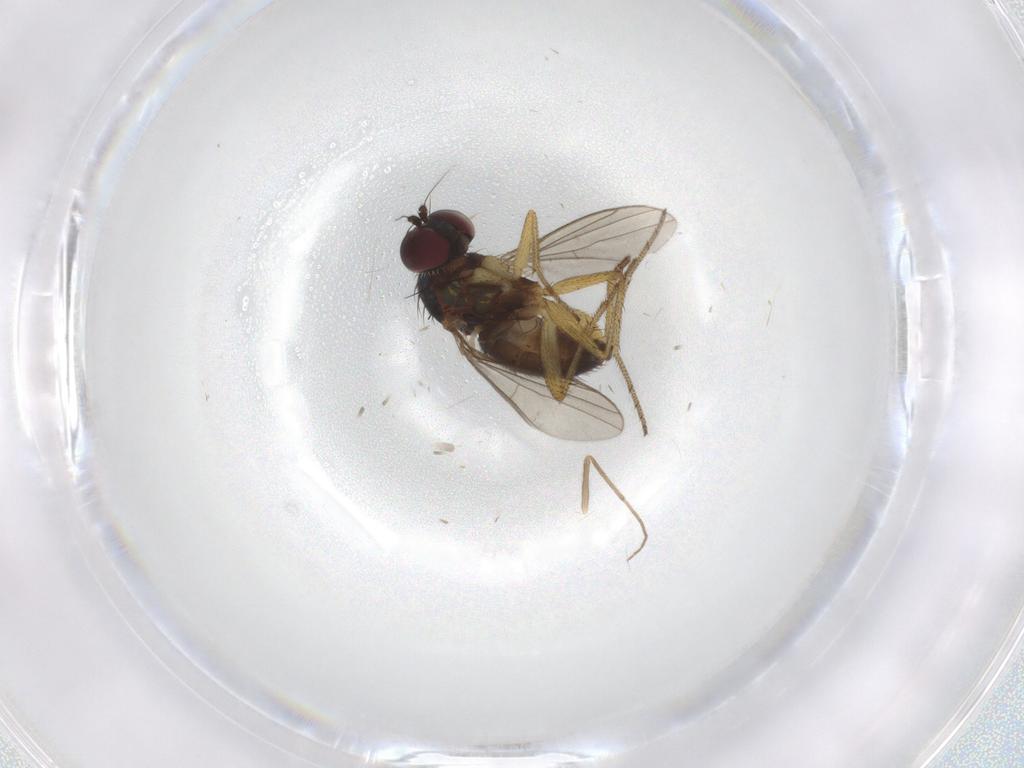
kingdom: Animalia
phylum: Arthropoda
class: Insecta
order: Diptera
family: Dolichopodidae
